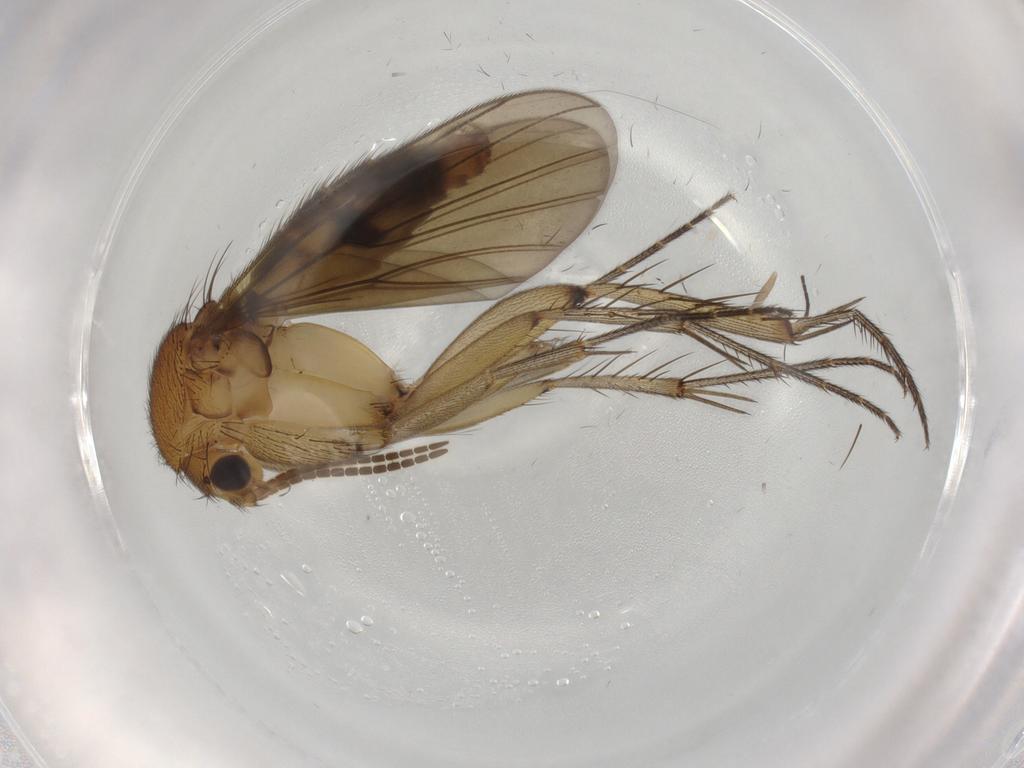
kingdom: Animalia
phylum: Arthropoda
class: Insecta
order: Diptera
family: Mycetophilidae
